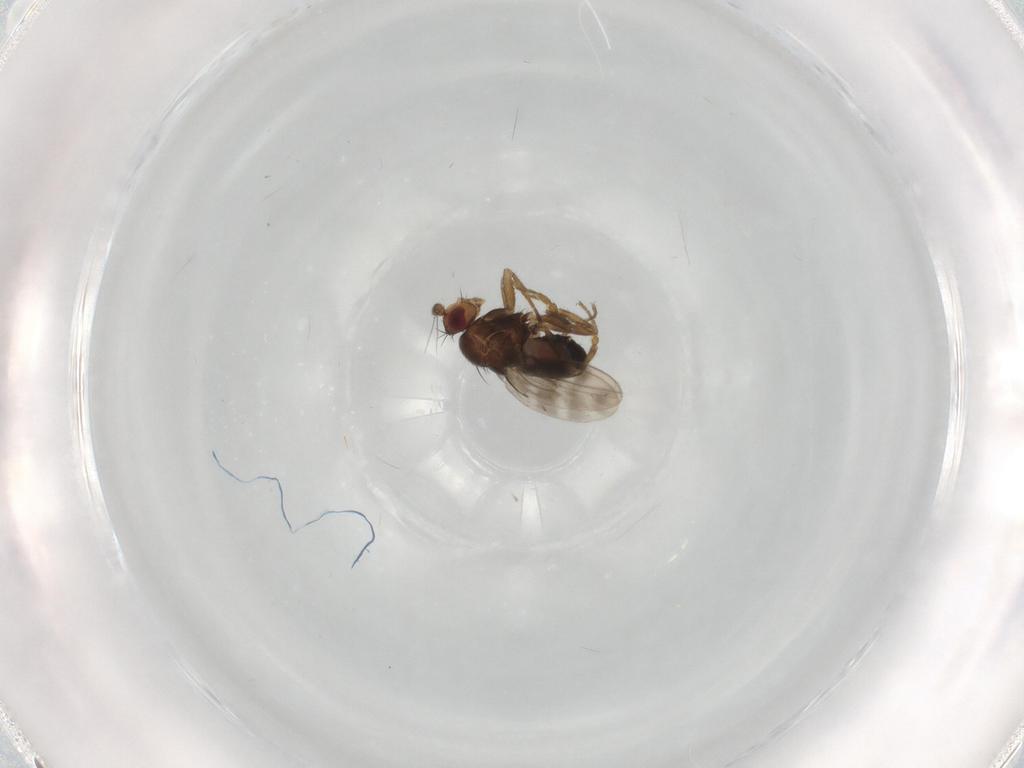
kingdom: Animalia
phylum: Arthropoda
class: Insecta
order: Diptera
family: Sphaeroceridae
